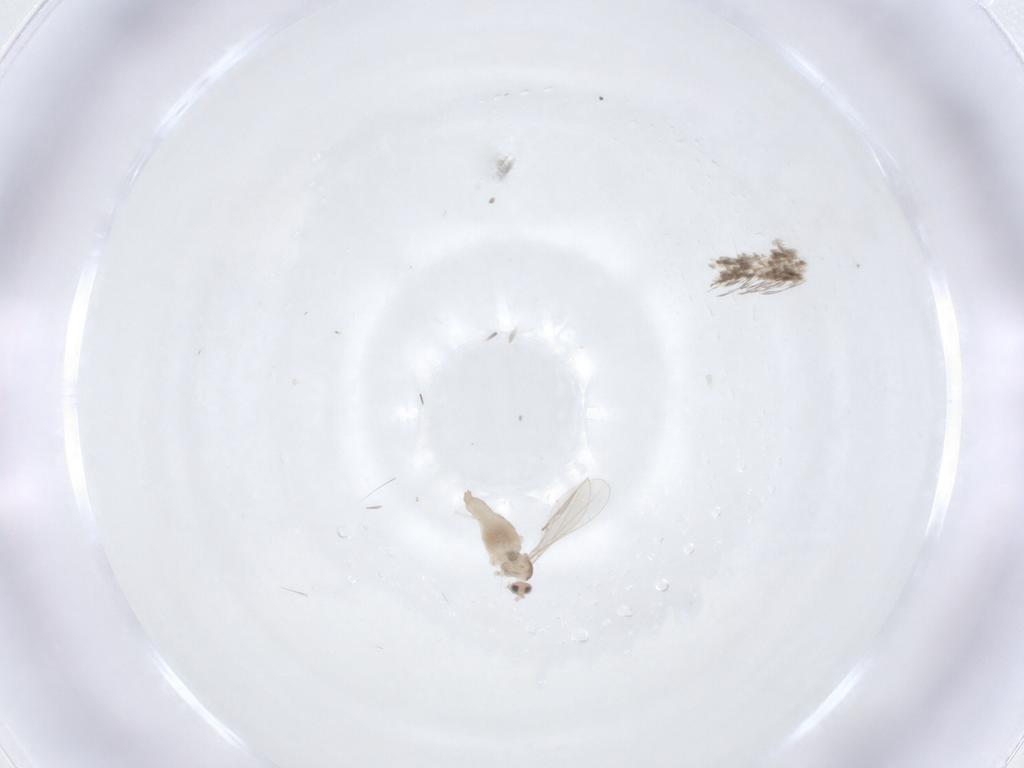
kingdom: Animalia
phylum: Arthropoda
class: Insecta
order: Diptera
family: Cecidomyiidae
